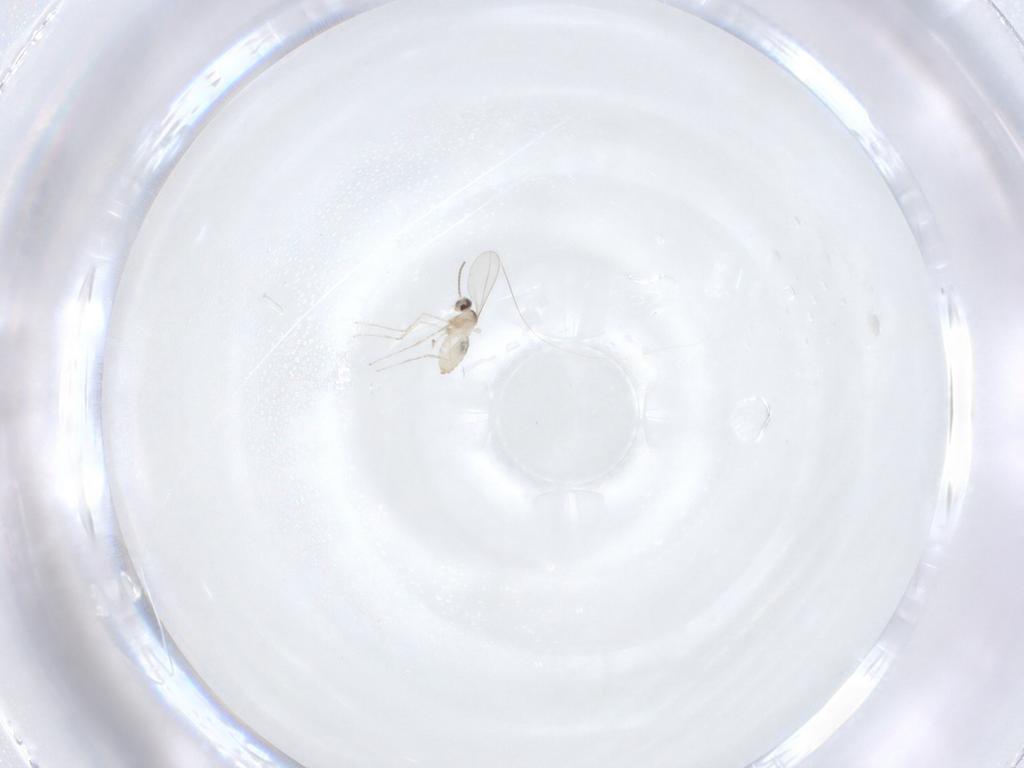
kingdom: Animalia
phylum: Arthropoda
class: Insecta
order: Diptera
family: Cecidomyiidae
